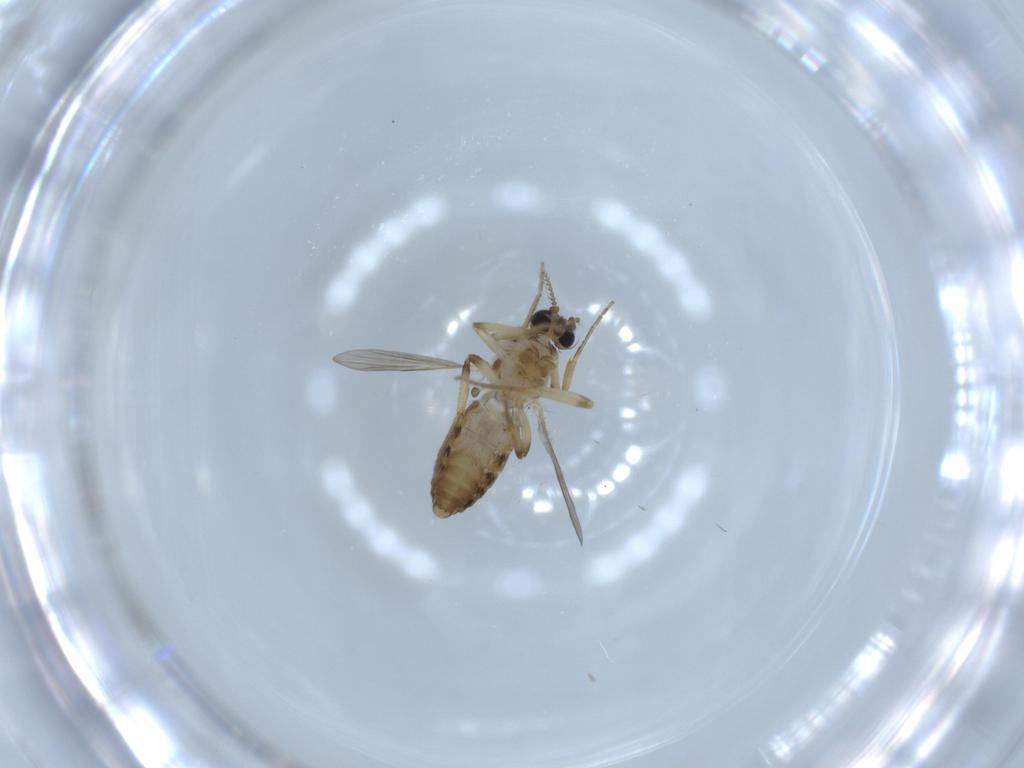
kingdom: Animalia
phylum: Arthropoda
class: Insecta
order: Diptera
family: Ceratopogonidae
